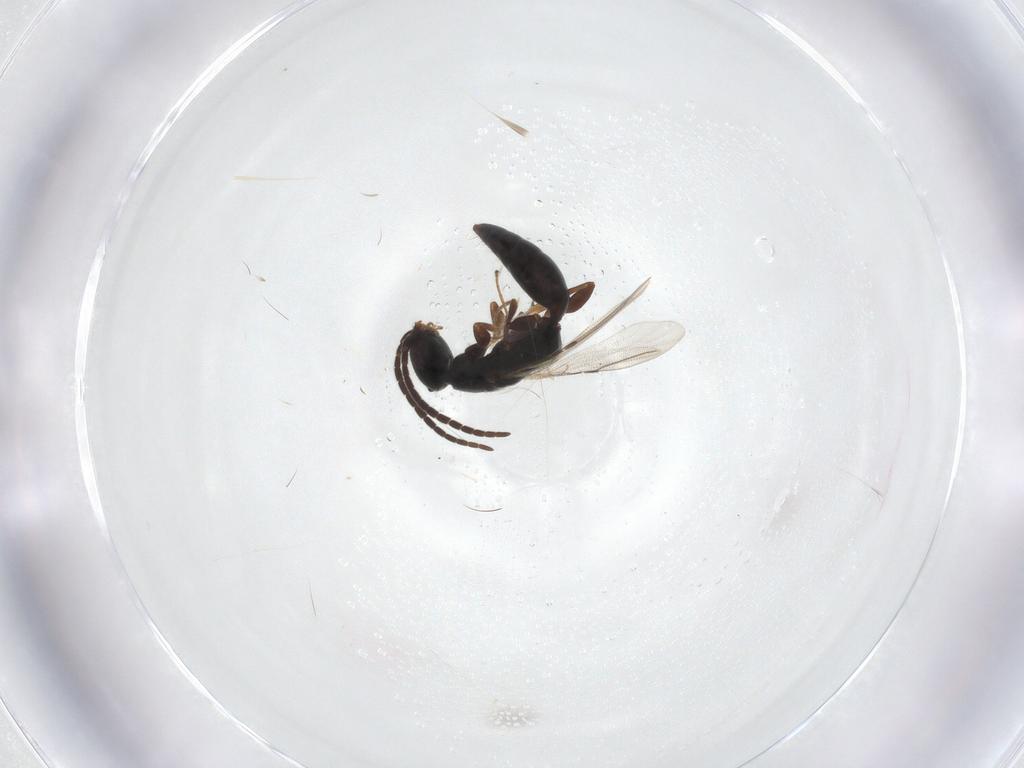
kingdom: Animalia
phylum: Arthropoda
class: Insecta
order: Hymenoptera
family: Bethylidae
